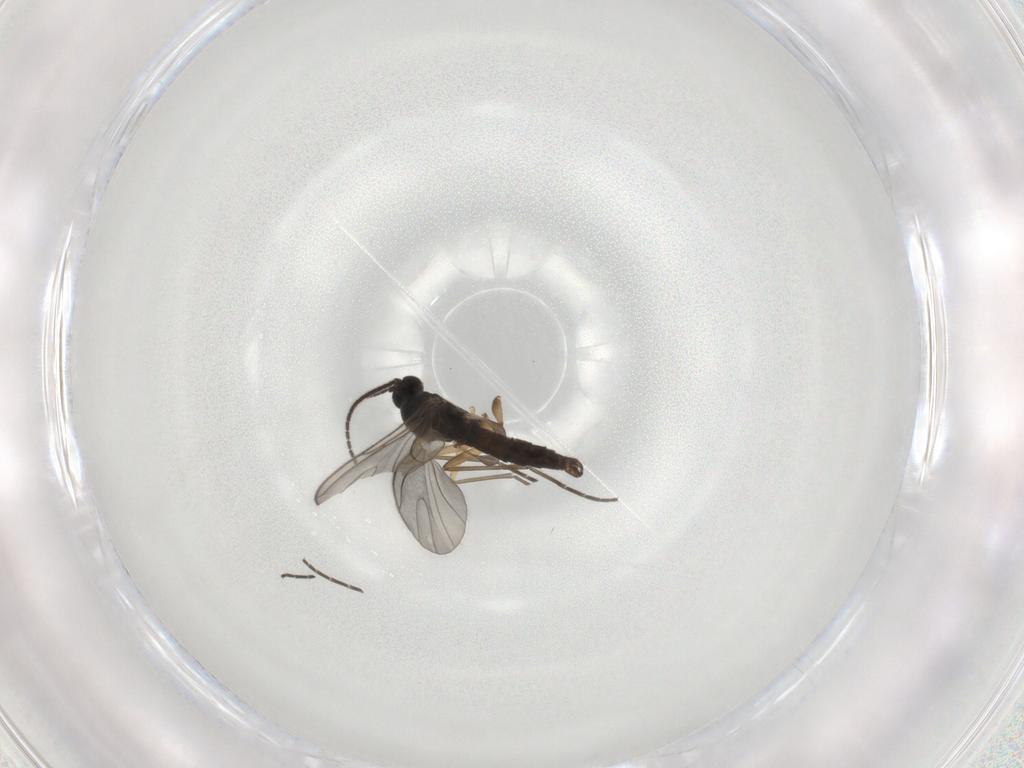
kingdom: Animalia
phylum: Arthropoda
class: Insecta
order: Diptera
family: Sciaridae
